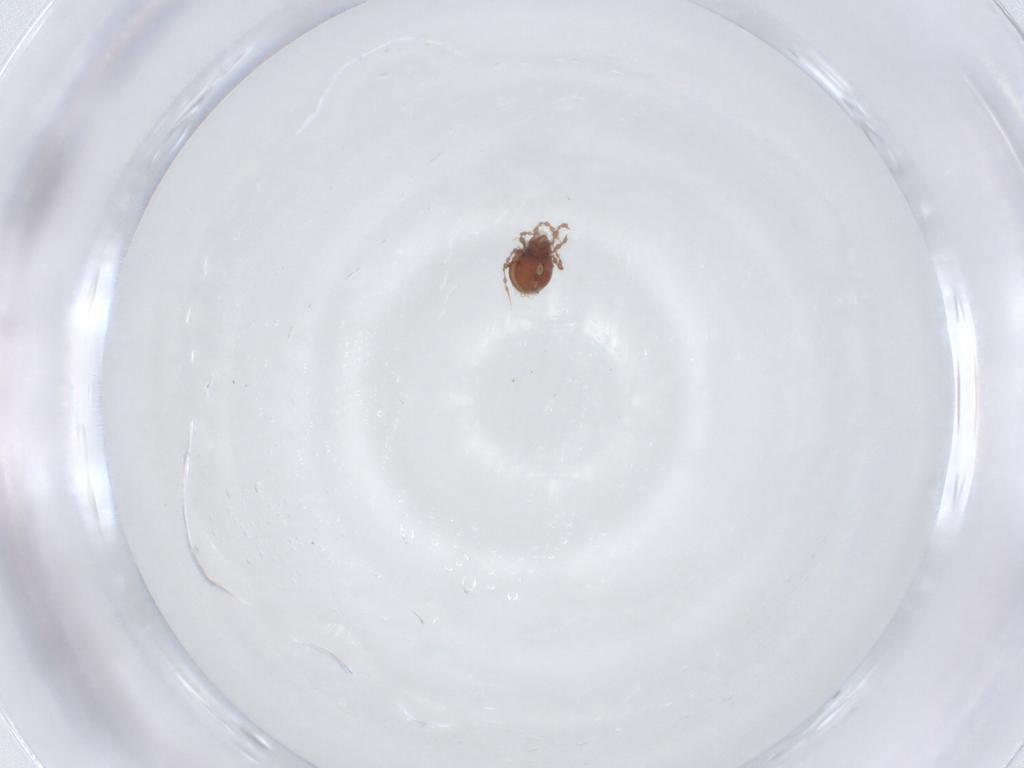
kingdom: Animalia
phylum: Arthropoda
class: Arachnida
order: Sarcoptiformes
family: Damaeidae
